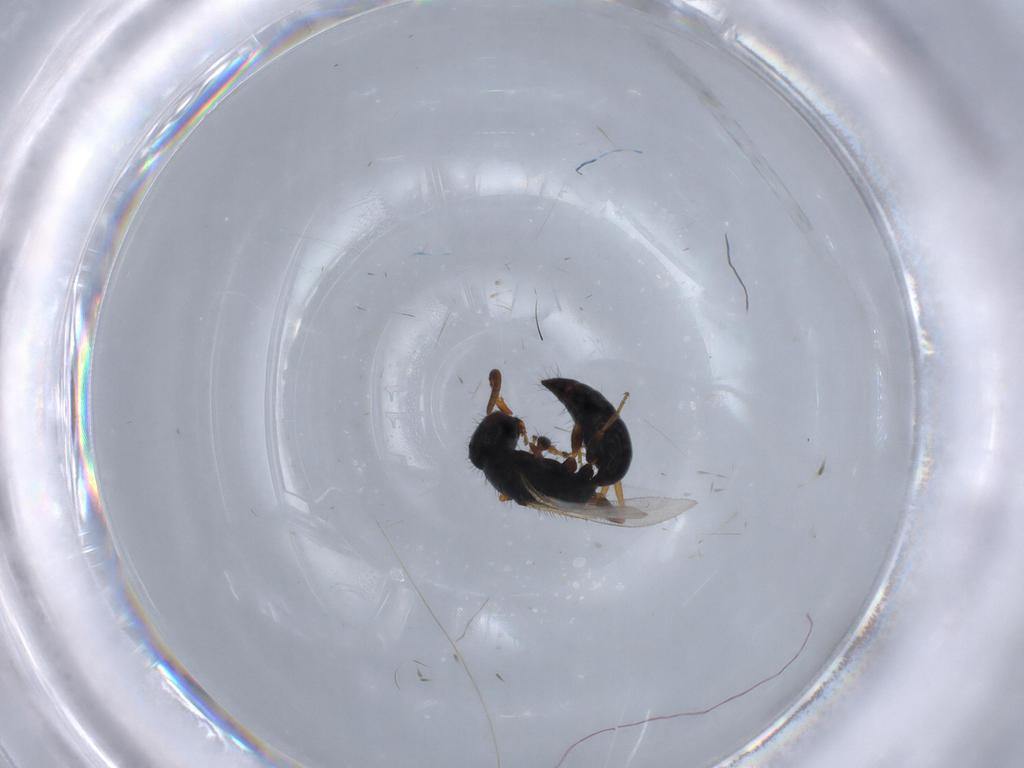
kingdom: Animalia
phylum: Arthropoda
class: Insecta
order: Hymenoptera
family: Bethylidae
